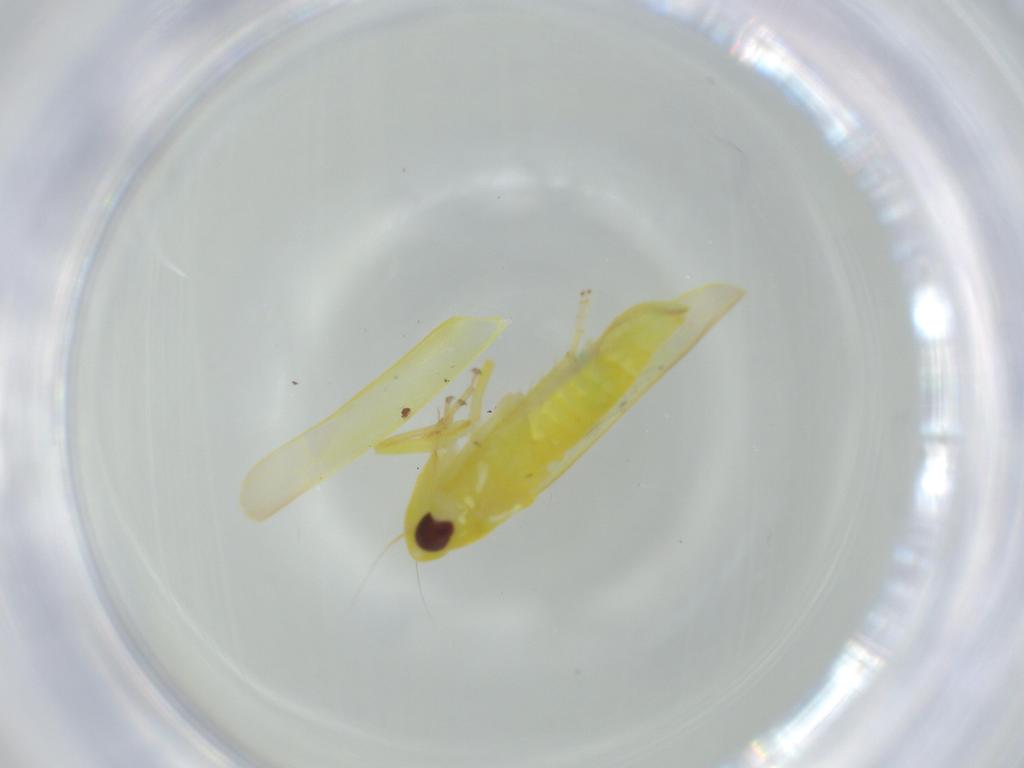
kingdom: Animalia
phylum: Arthropoda
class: Insecta
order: Hemiptera
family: Cicadellidae
